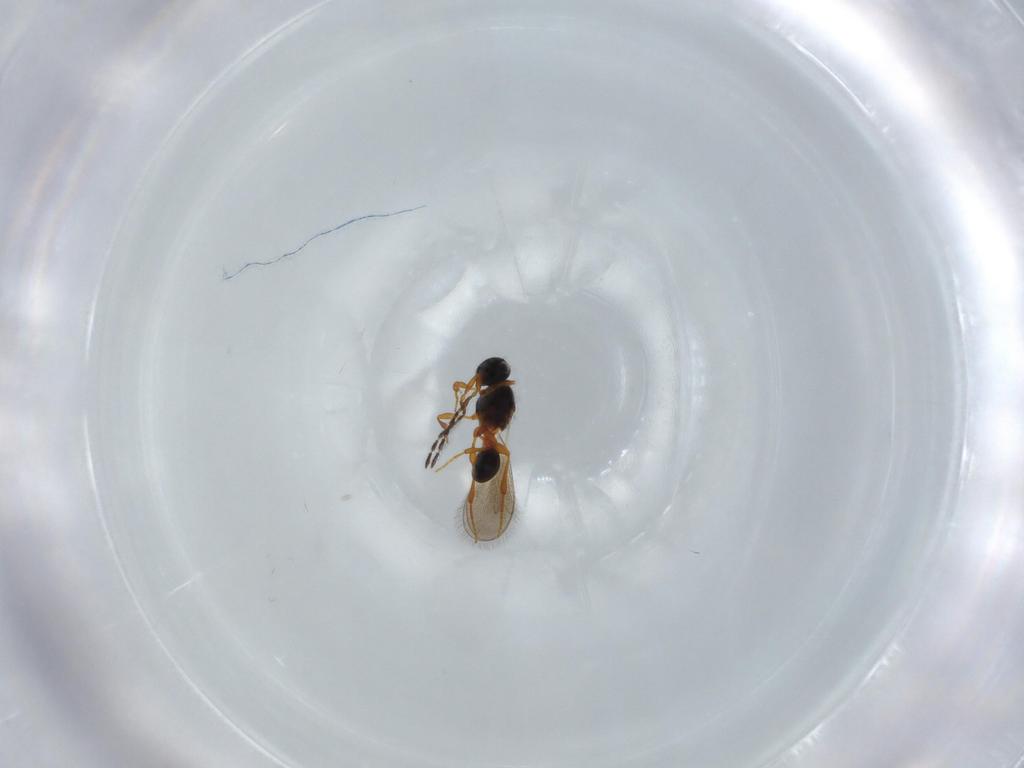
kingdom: Animalia
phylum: Arthropoda
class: Insecta
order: Hymenoptera
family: Platygastridae
